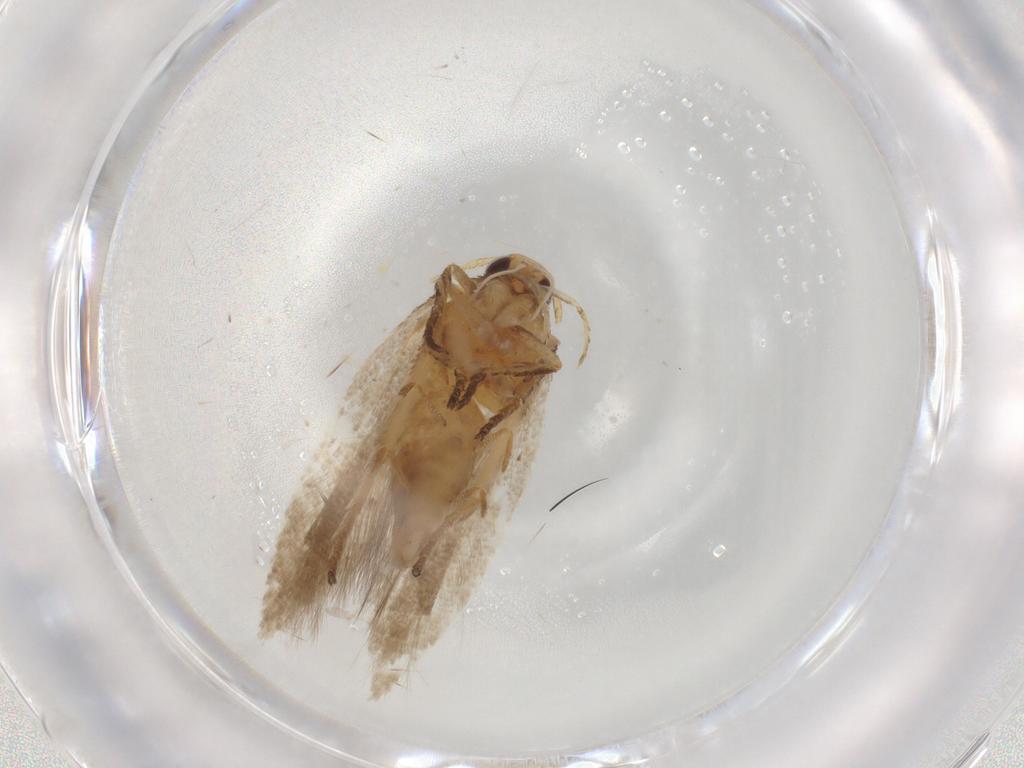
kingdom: Animalia
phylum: Arthropoda
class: Insecta
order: Lepidoptera
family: Gelechiidae
